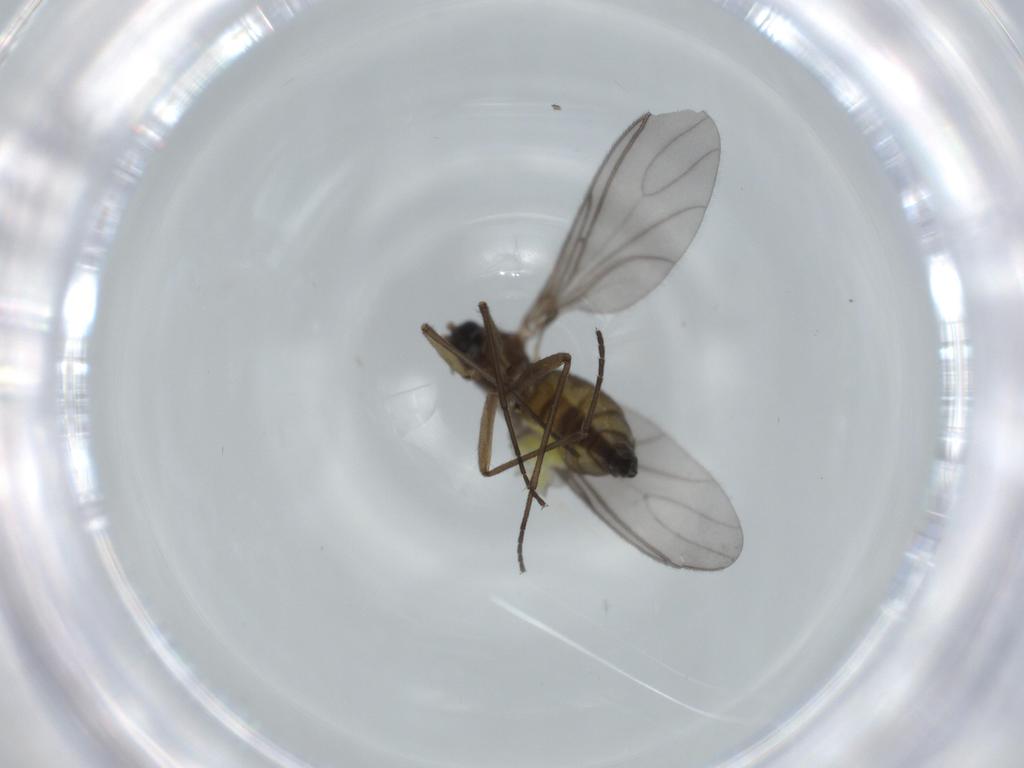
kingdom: Animalia
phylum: Arthropoda
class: Insecta
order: Diptera
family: Sciaridae
